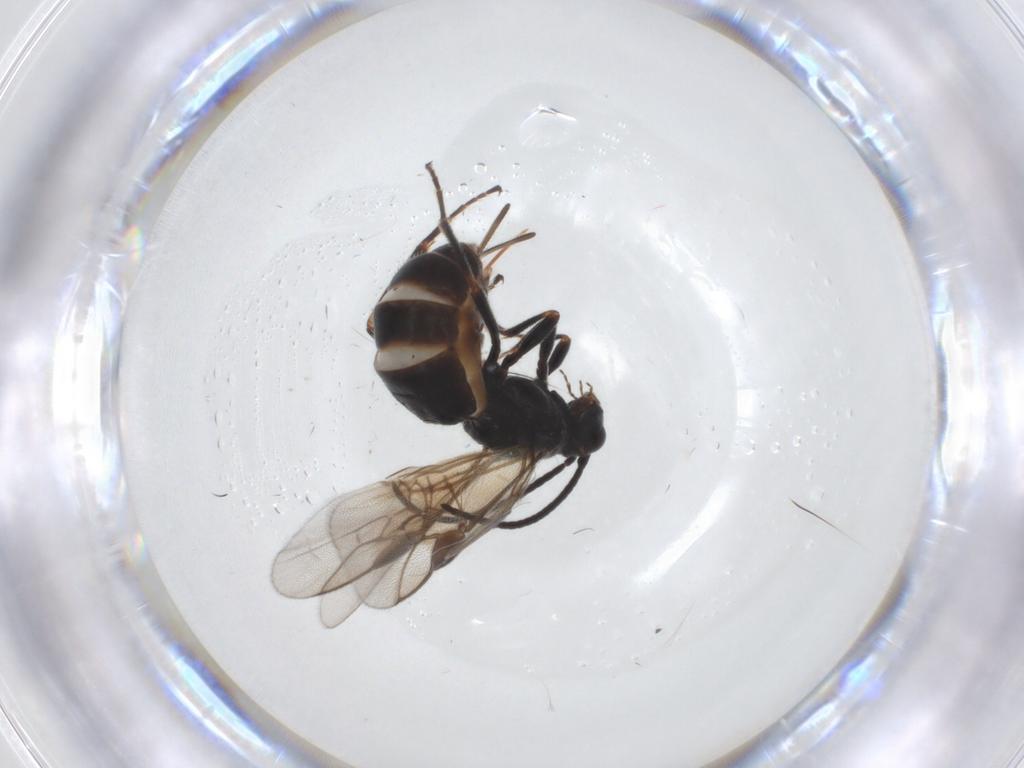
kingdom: Animalia
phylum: Arthropoda
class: Insecta
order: Hymenoptera
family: Braconidae
